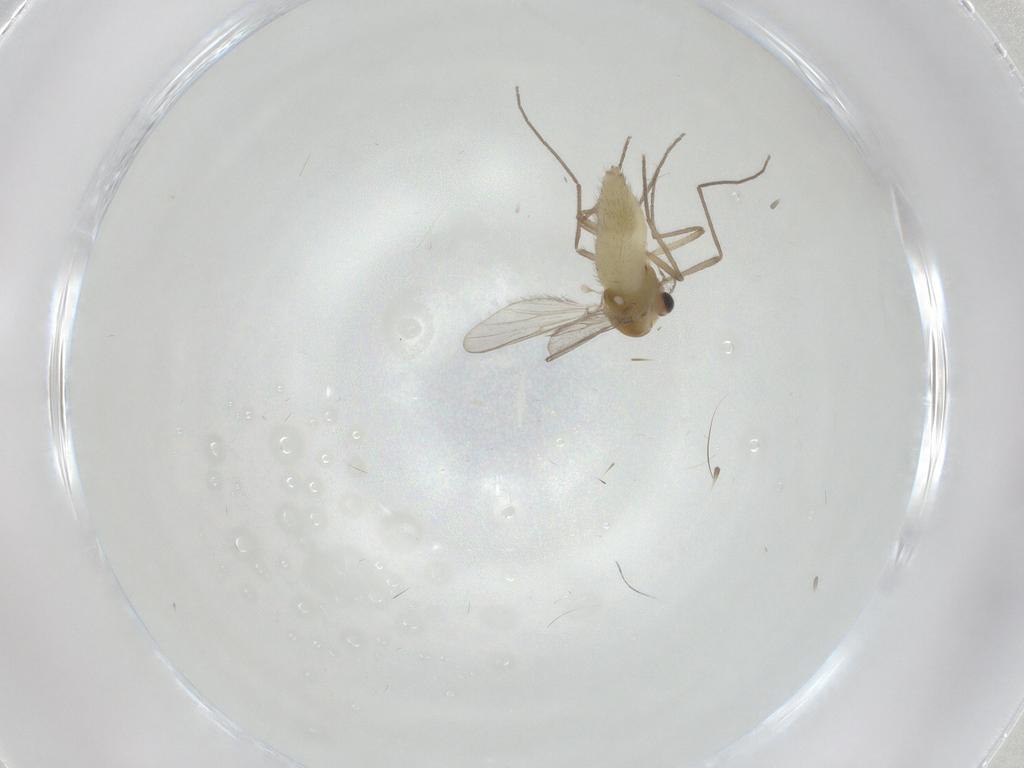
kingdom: Animalia
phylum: Arthropoda
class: Insecta
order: Diptera
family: Chironomidae
